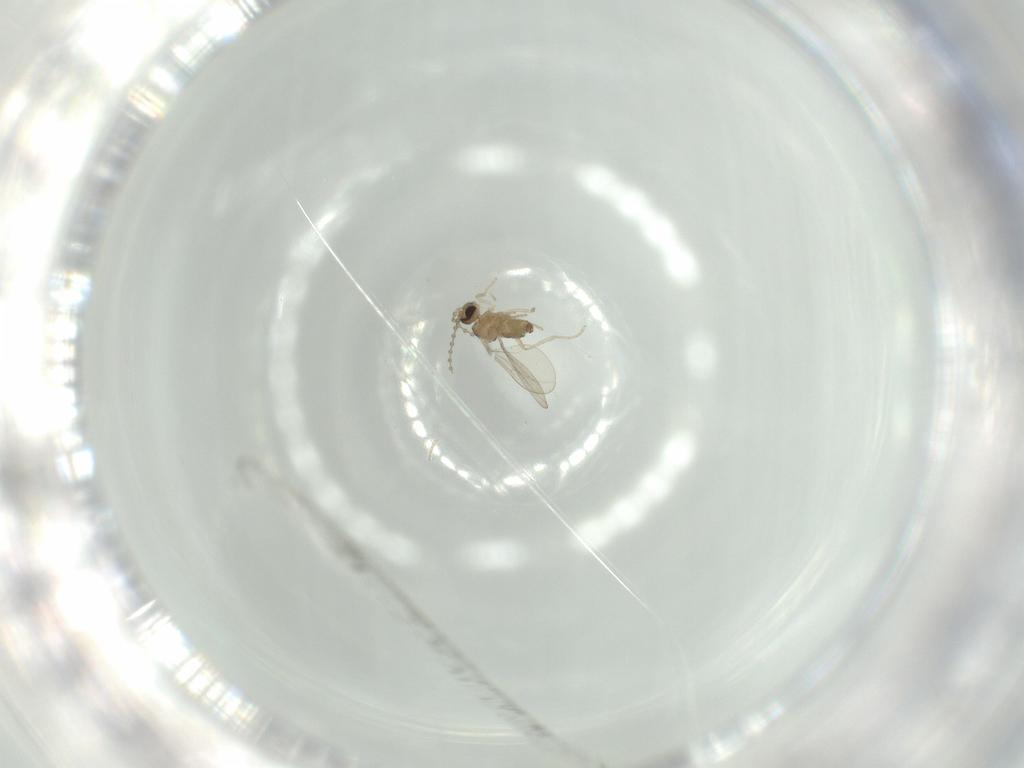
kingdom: Animalia
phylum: Arthropoda
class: Insecta
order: Diptera
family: Cecidomyiidae
